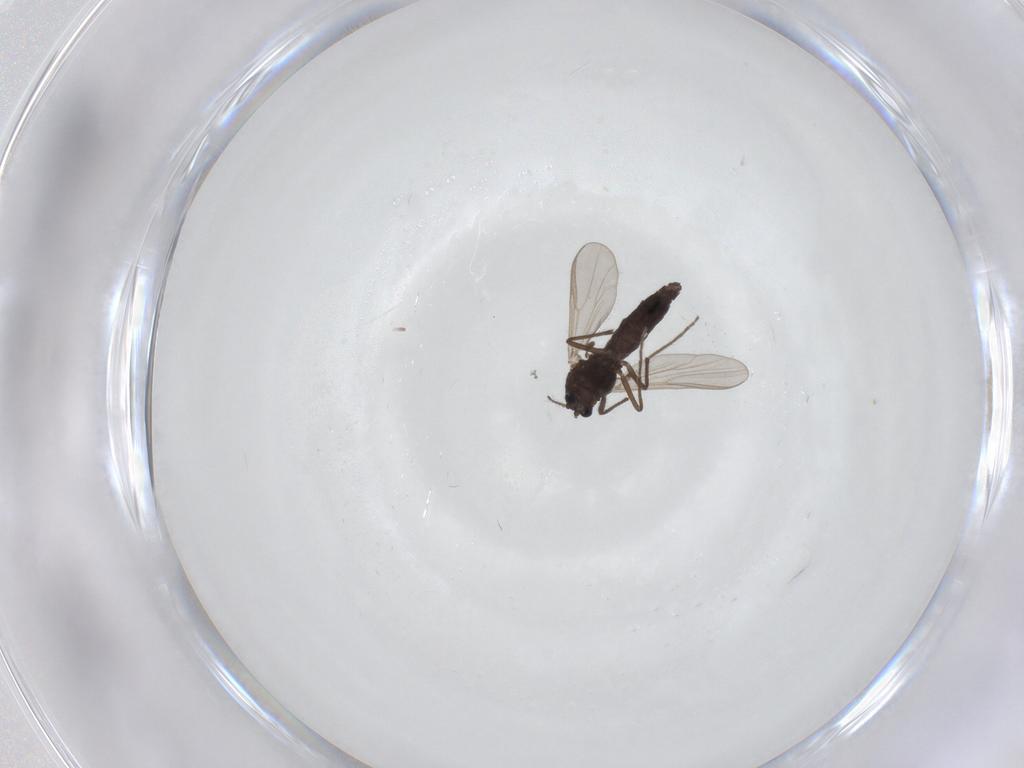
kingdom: Animalia
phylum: Arthropoda
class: Insecta
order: Diptera
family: Chironomidae
